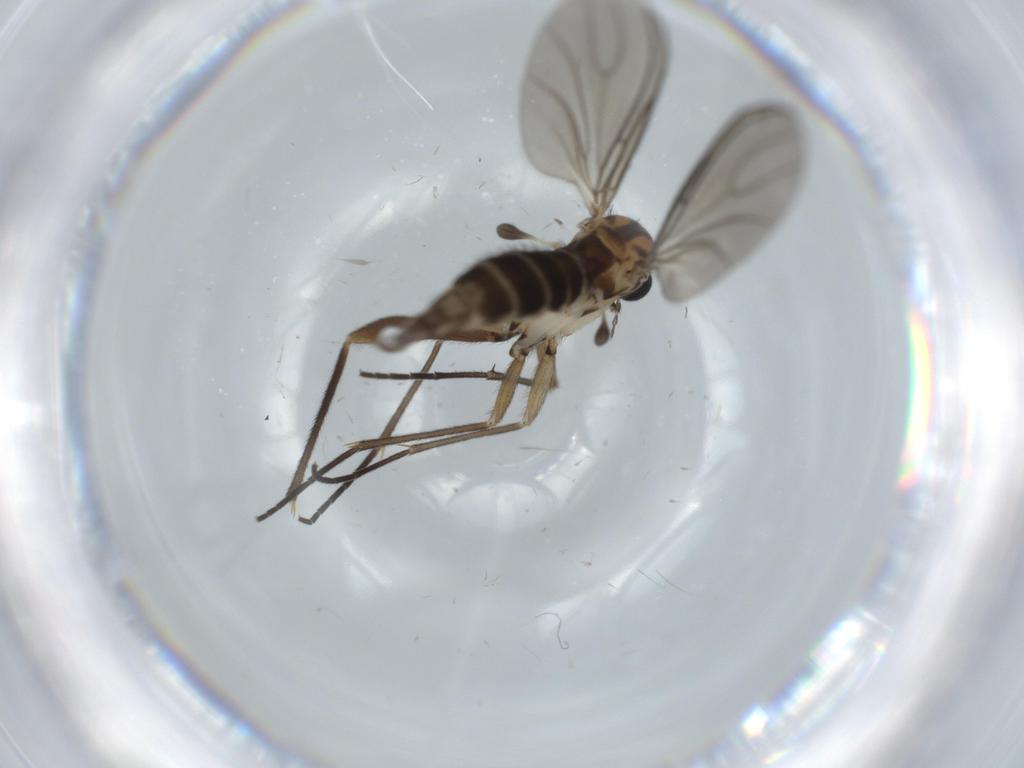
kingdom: Animalia
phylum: Arthropoda
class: Insecta
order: Diptera
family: Sciaridae
